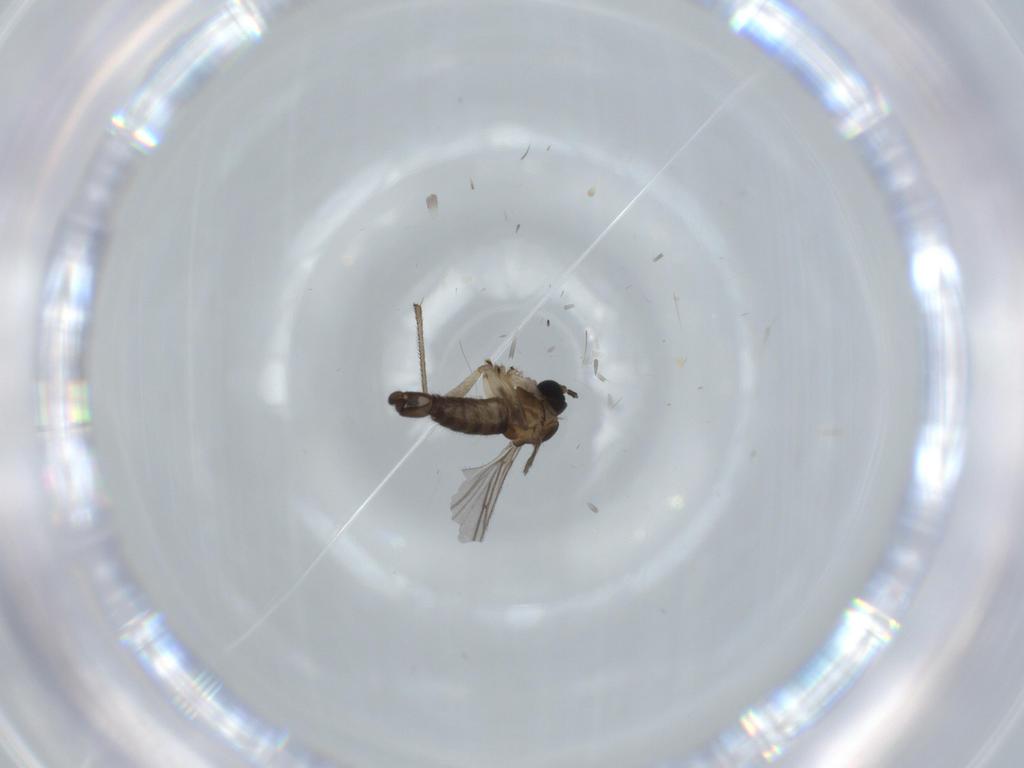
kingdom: Animalia
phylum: Arthropoda
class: Insecta
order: Diptera
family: Sciaridae
